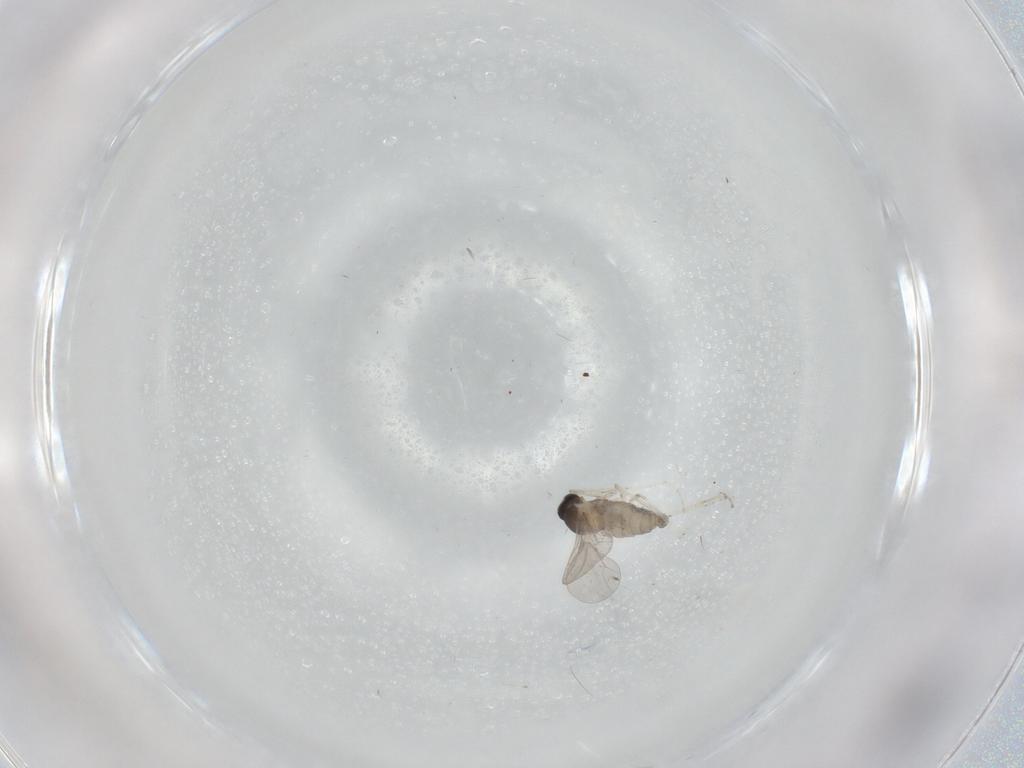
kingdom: Animalia
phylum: Arthropoda
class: Insecta
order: Diptera
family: Cecidomyiidae
